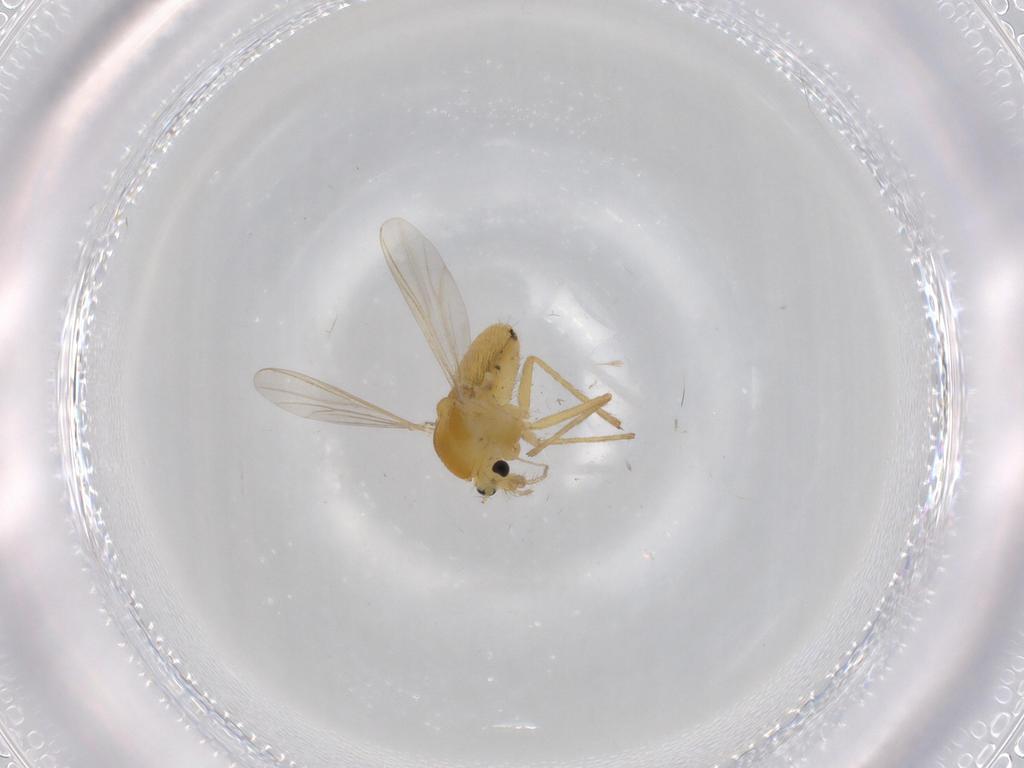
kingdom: Animalia
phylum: Arthropoda
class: Insecta
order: Diptera
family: Chironomidae
